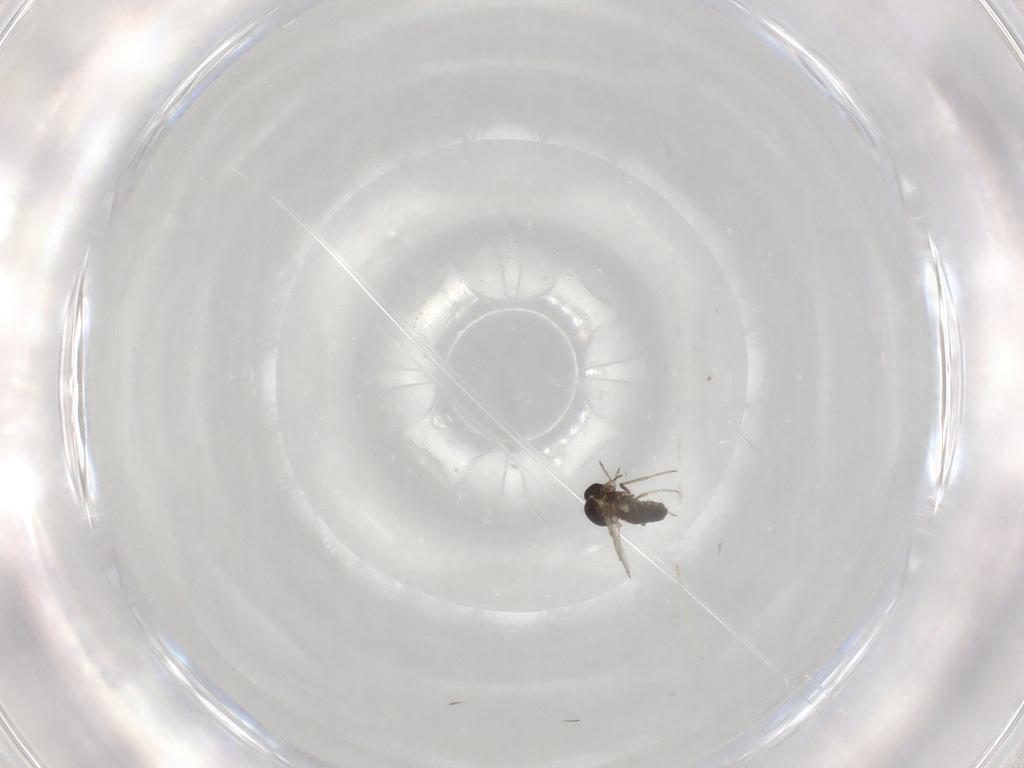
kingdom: Animalia
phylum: Arthropoda
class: Insecta
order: Diptera
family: Ceratopogonidae
